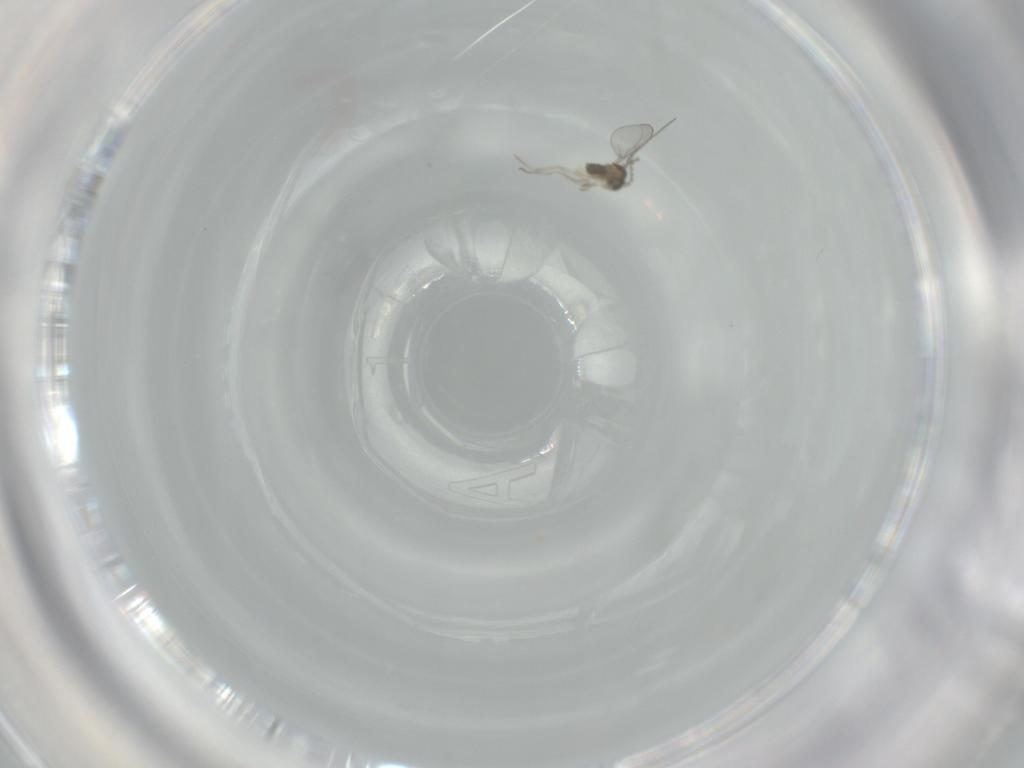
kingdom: Animalia
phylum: Arthropoda
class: Insecta
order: Diptera
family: Cecidomyiidae
